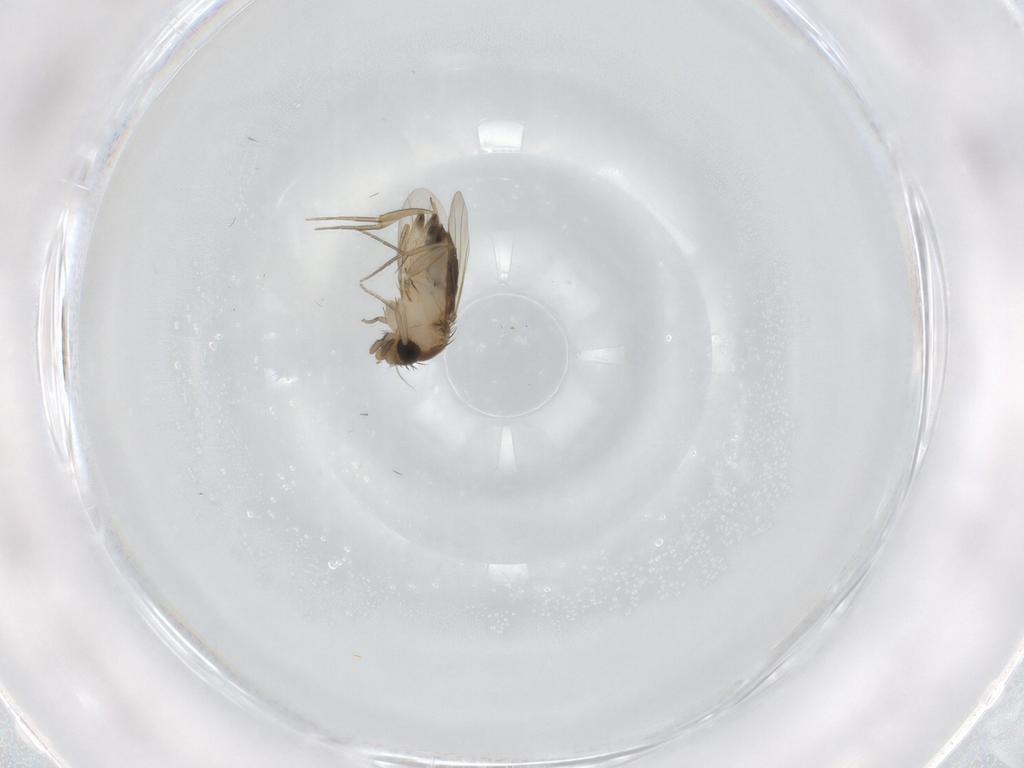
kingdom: Animalia
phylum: Arthropoda
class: Insecta
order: Diptera
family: Phoridae
